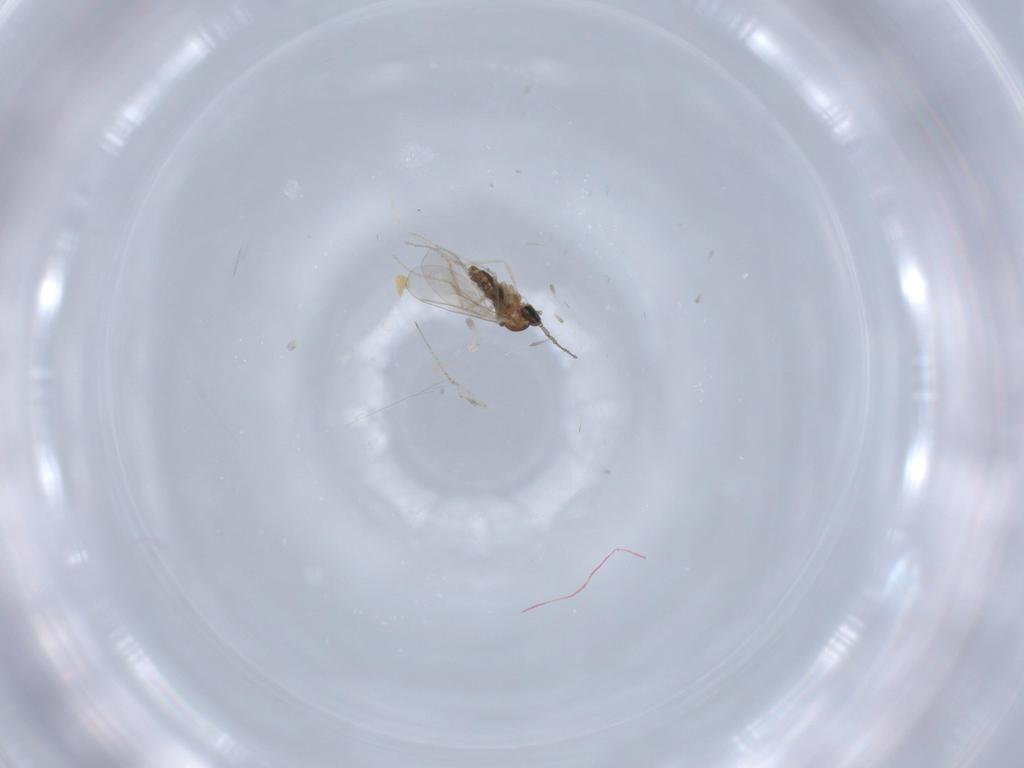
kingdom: Animalia
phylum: Arthropoda
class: Insecta
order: Diptera
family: Cecidomyiidae
